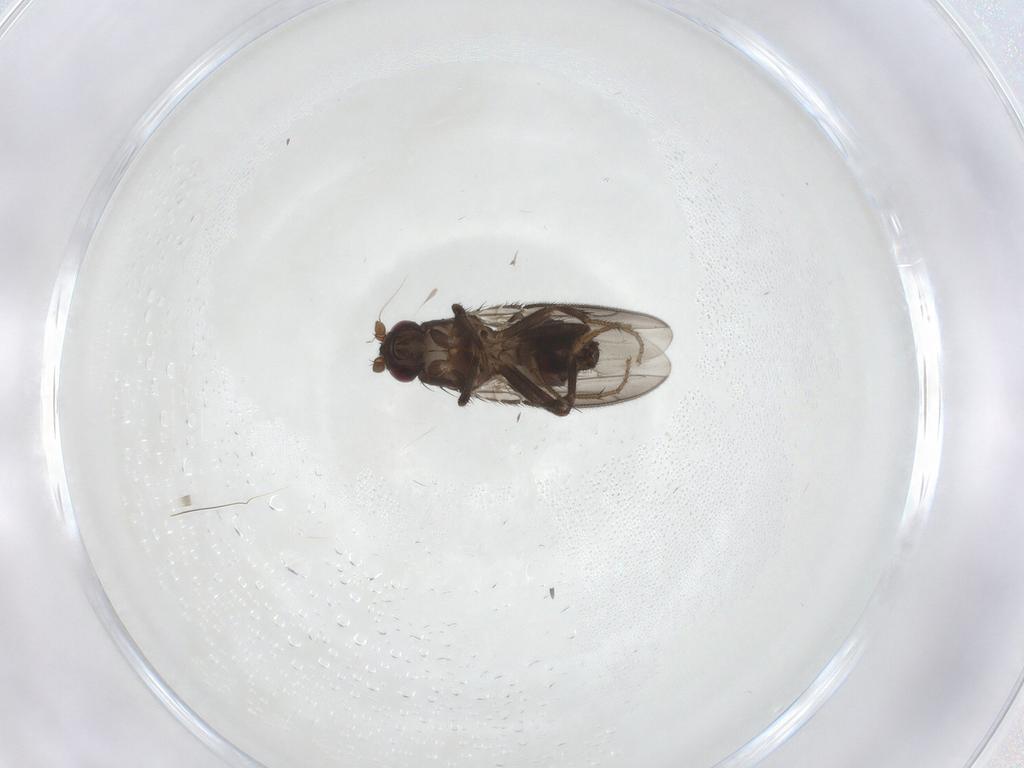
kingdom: Animalia
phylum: Arthropoda
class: Insecta
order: Diptera
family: Sphaeroceridae
